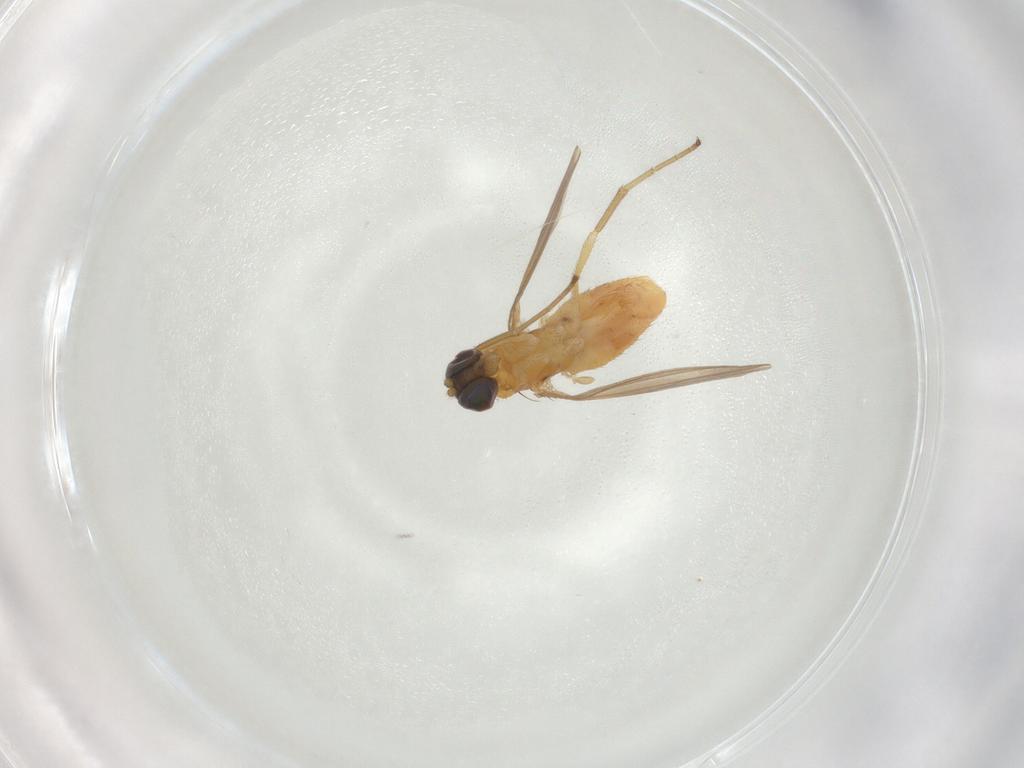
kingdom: Animalia
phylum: Arthropoda
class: Insecta
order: Diptera
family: Dolichopodidae
